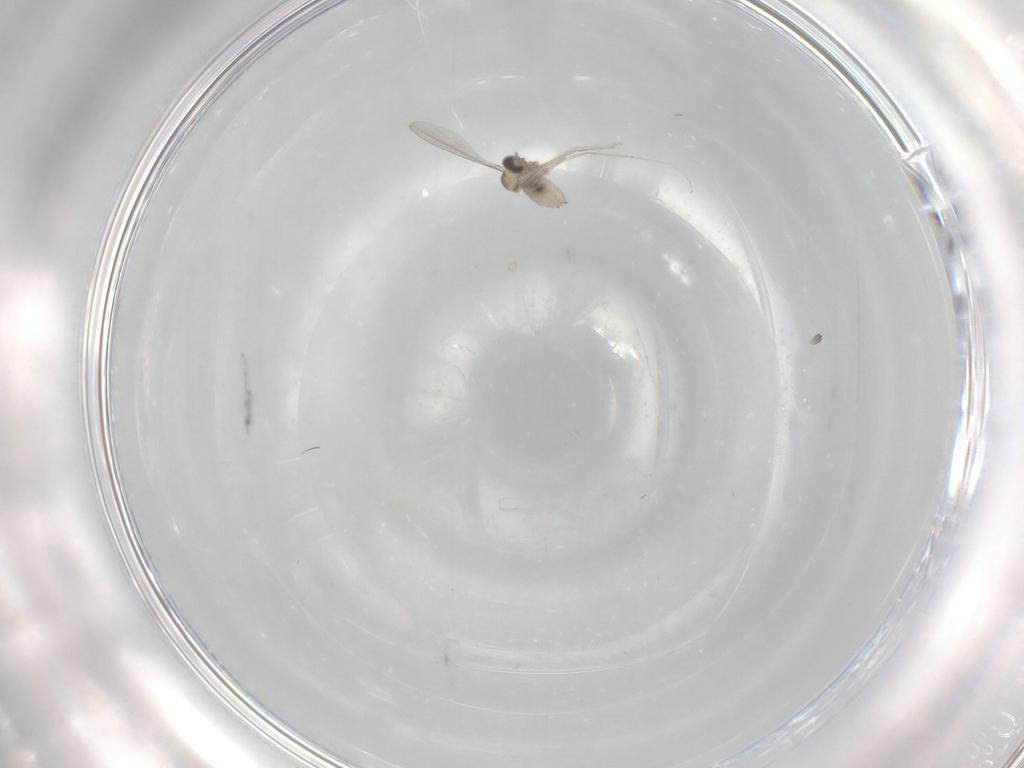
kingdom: Animalia
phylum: Arthropoda
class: Insecta
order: Diptera
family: Cecidomyiidae
